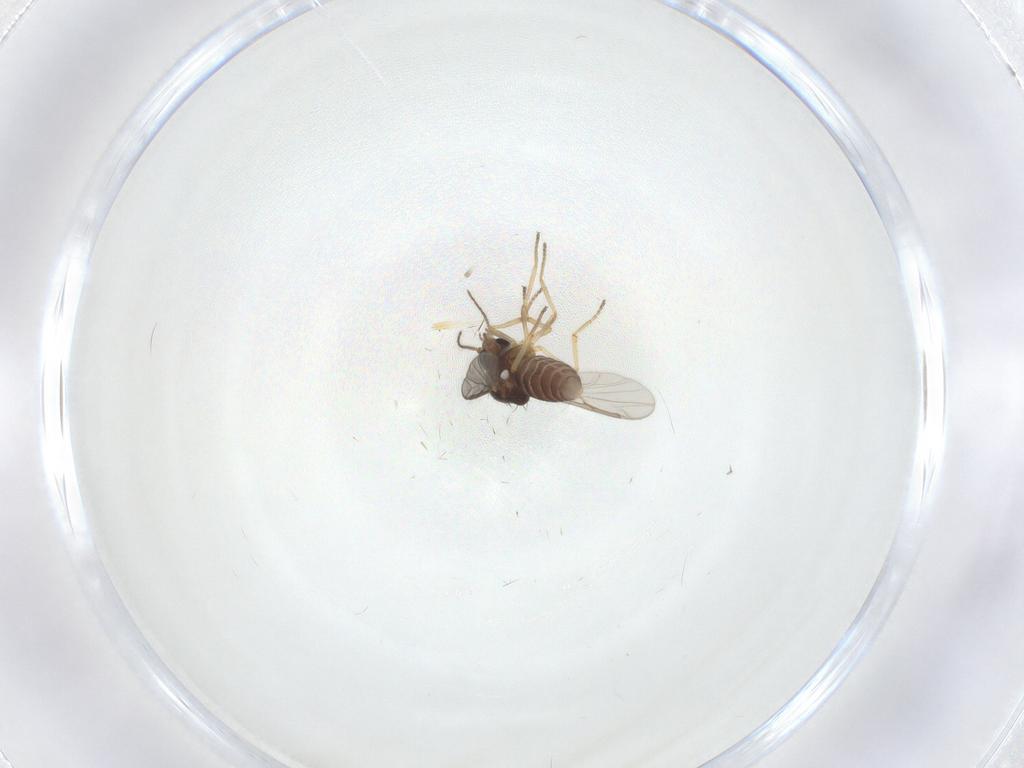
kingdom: Animalia
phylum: Arthropoda
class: Insecta
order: Diptera
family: Ceratopogonidae
